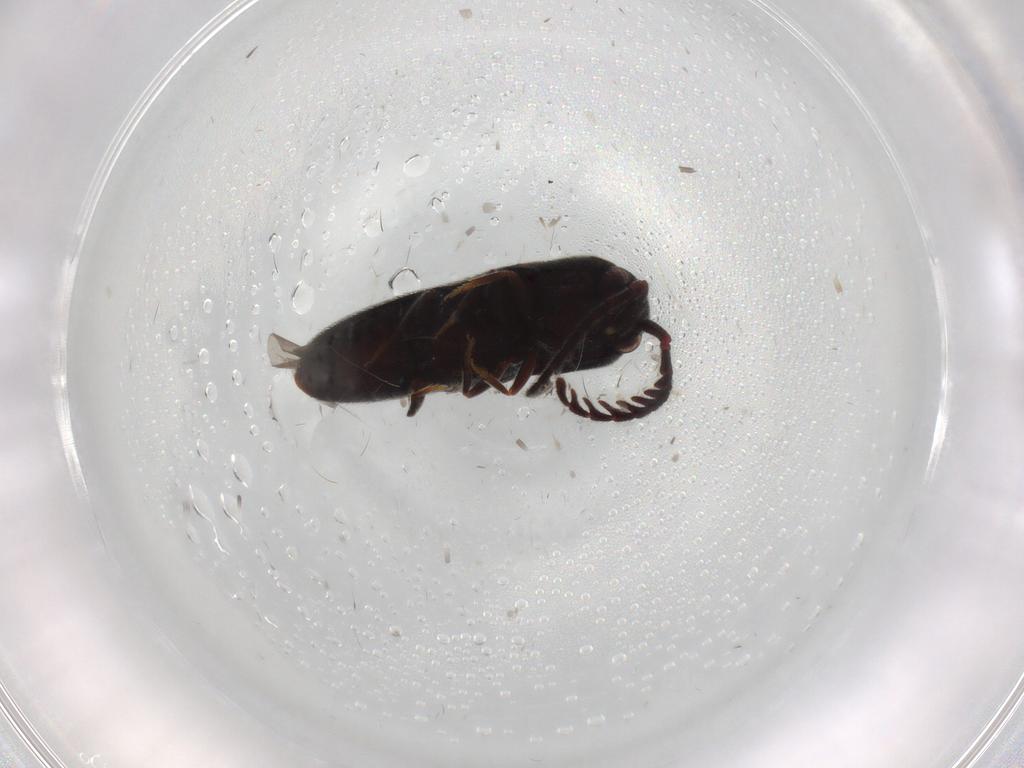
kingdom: Animalia
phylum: Arthropoda
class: Insecta
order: Coleoptera
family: Eucnemidae
